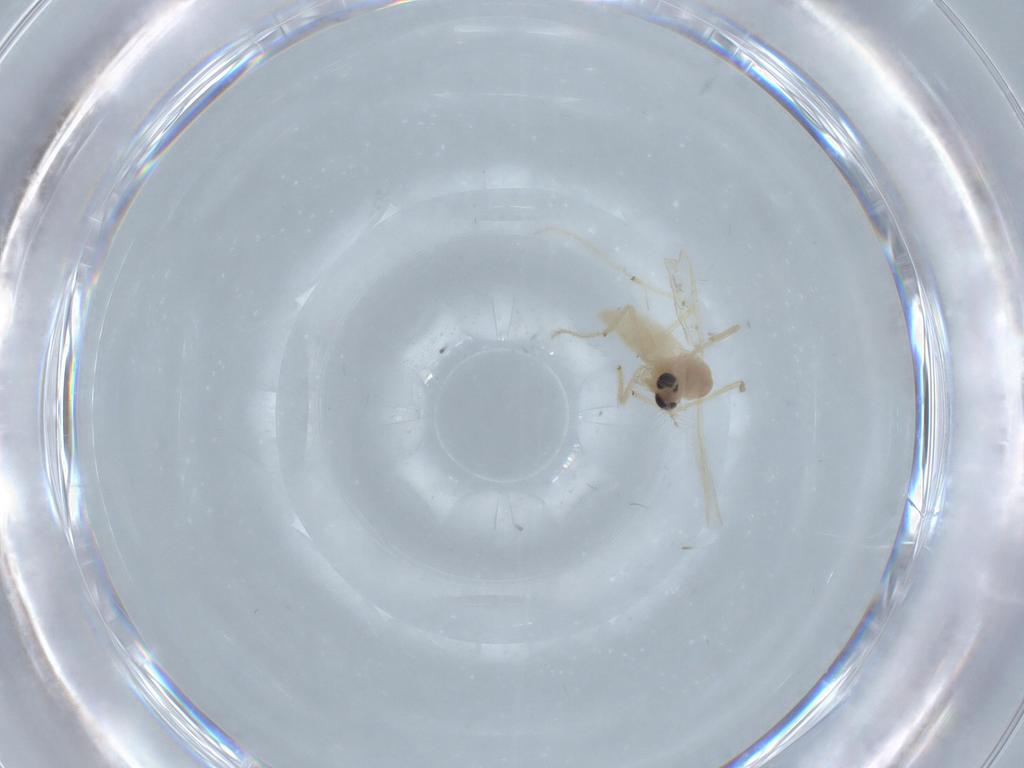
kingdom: Animalia
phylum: Arthropoda
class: Insecta
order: Diptera
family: Chironomidae
